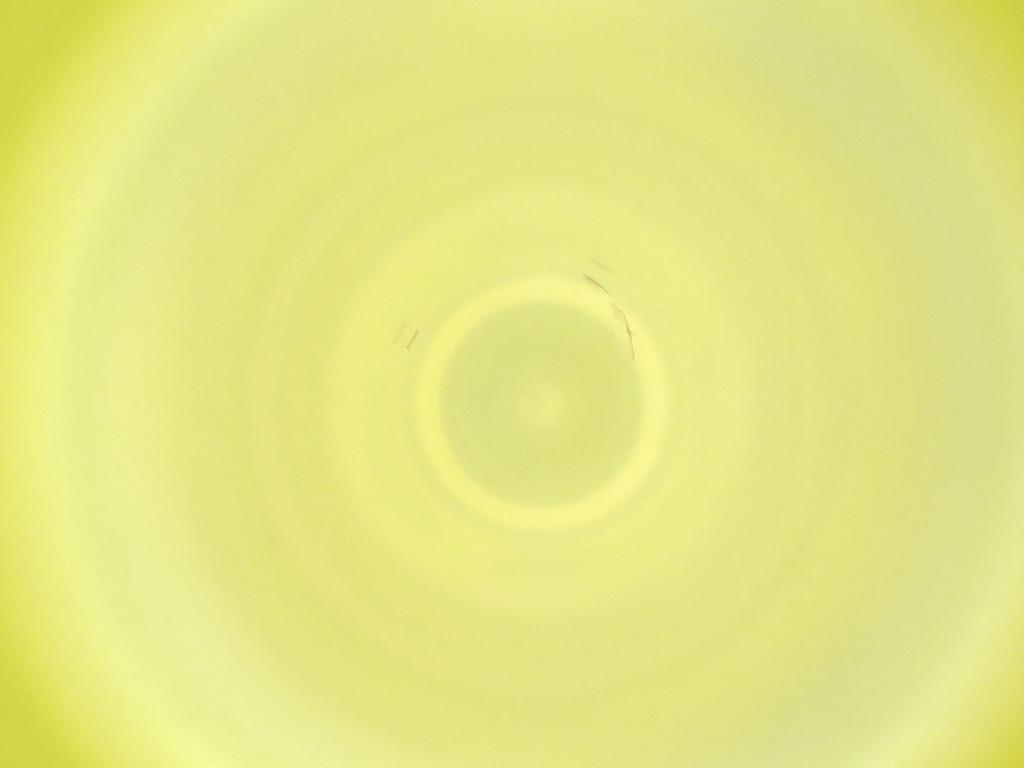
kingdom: Animalia
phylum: Arthropoda
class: Insecta
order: Diptera
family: Cecidomyiidae
